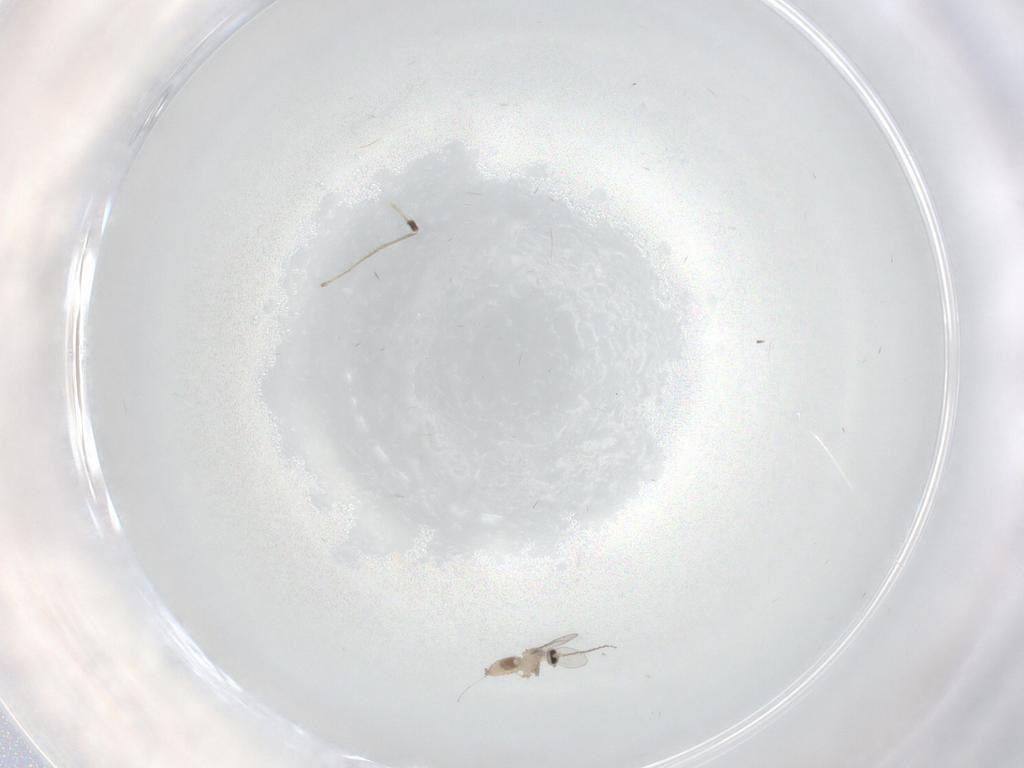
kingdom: Animalia
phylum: Arthropoda
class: Insecta
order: Diptera
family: Cecidomyiidae
